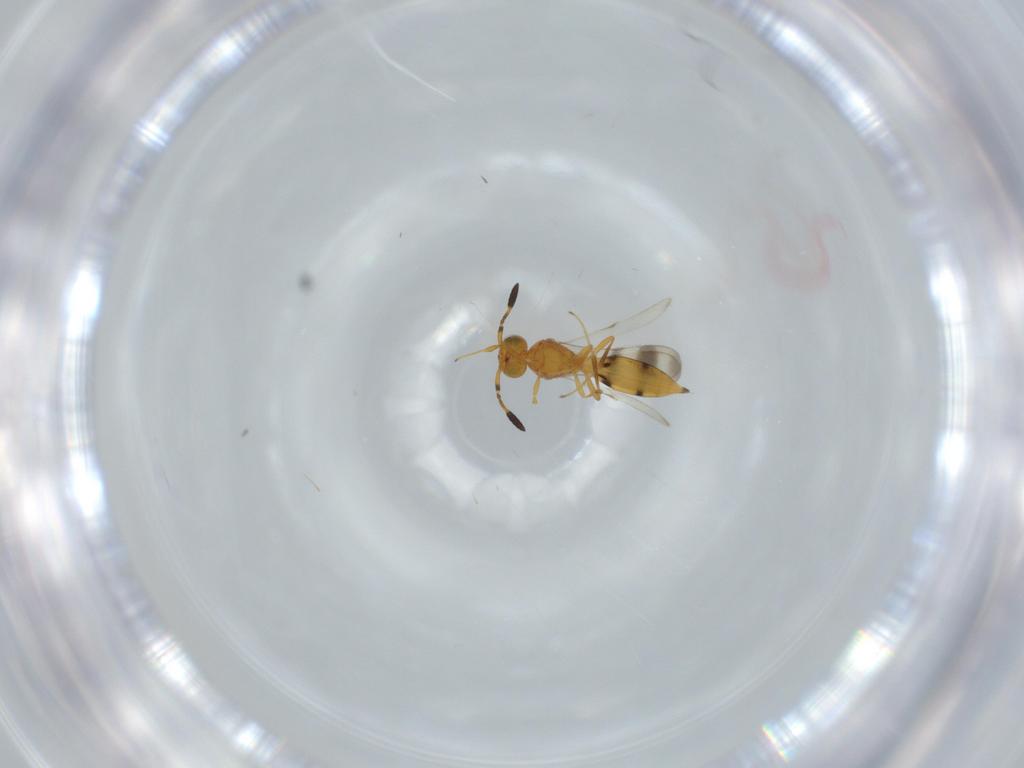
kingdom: Animalia
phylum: Arthropoda
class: Insecta
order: Hymenoptera
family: Scelionidae
